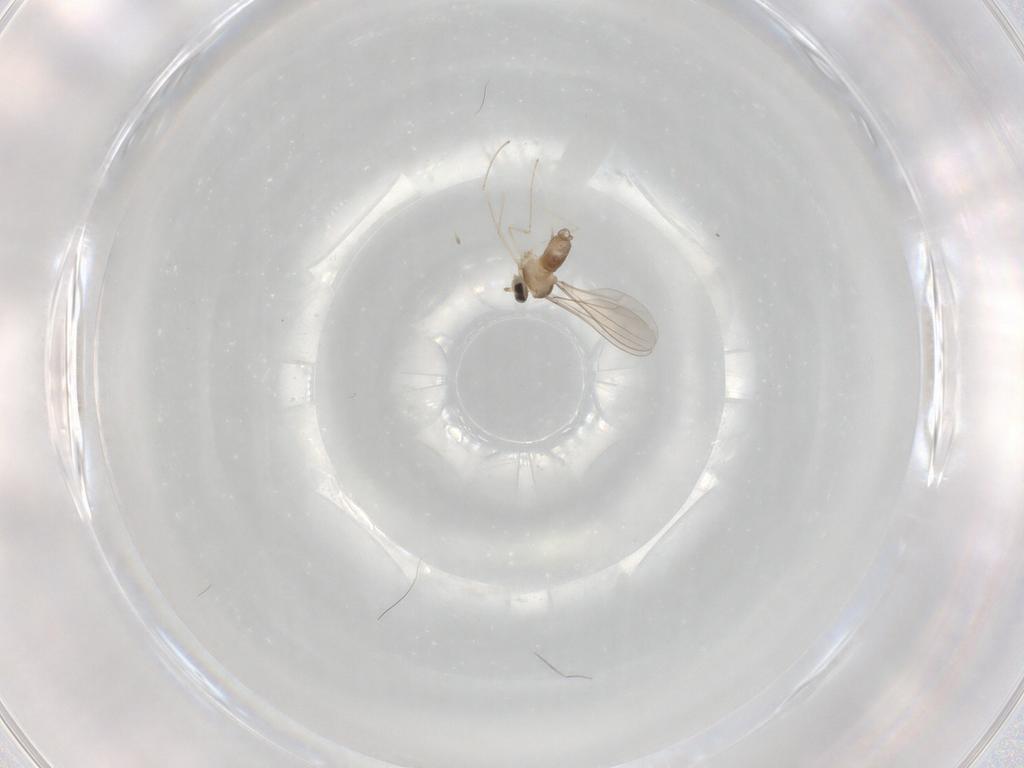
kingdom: Animalia
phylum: Arthropoda
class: Insecta
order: Diptera
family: Cecidomyiidae
